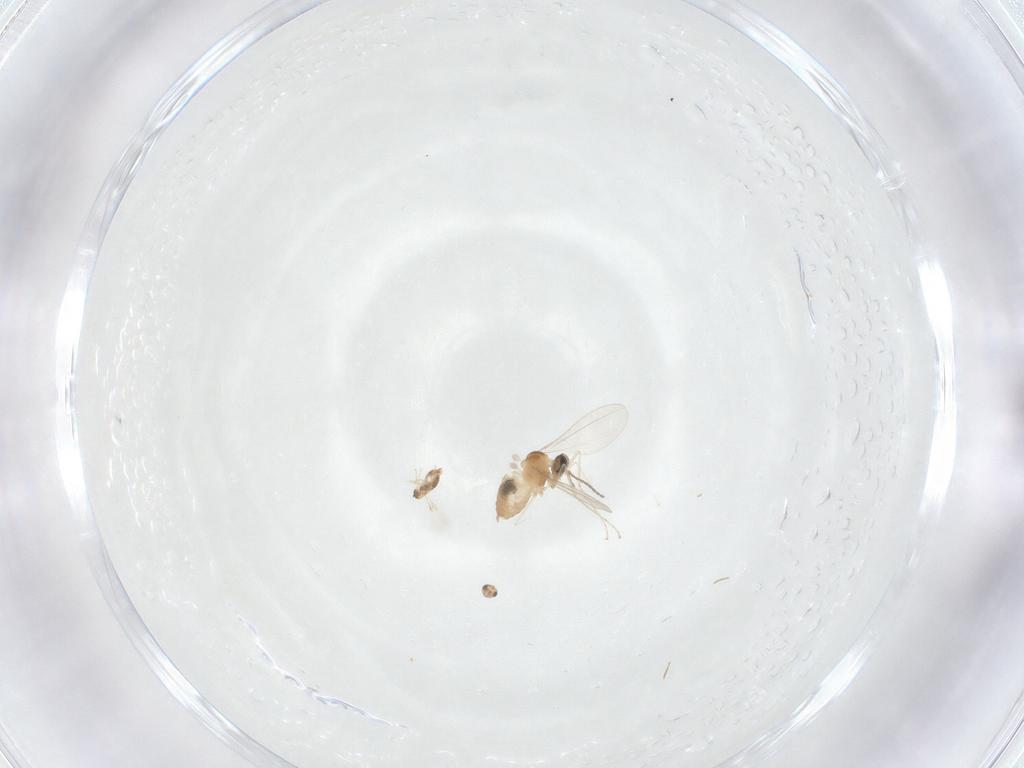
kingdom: Animalia
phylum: Arthropoda
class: Insecta
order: Hymenoptera
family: Aphelinidae
